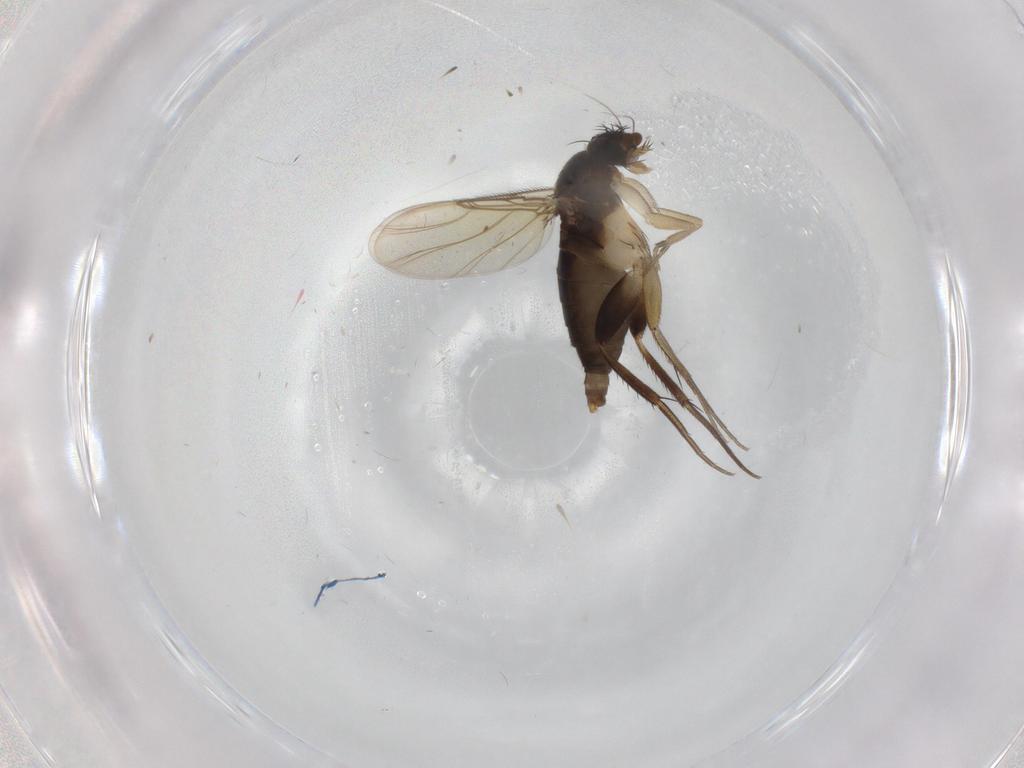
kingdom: Animalia
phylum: Arthropoda
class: Insecta
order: Diptera
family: Phoridae
